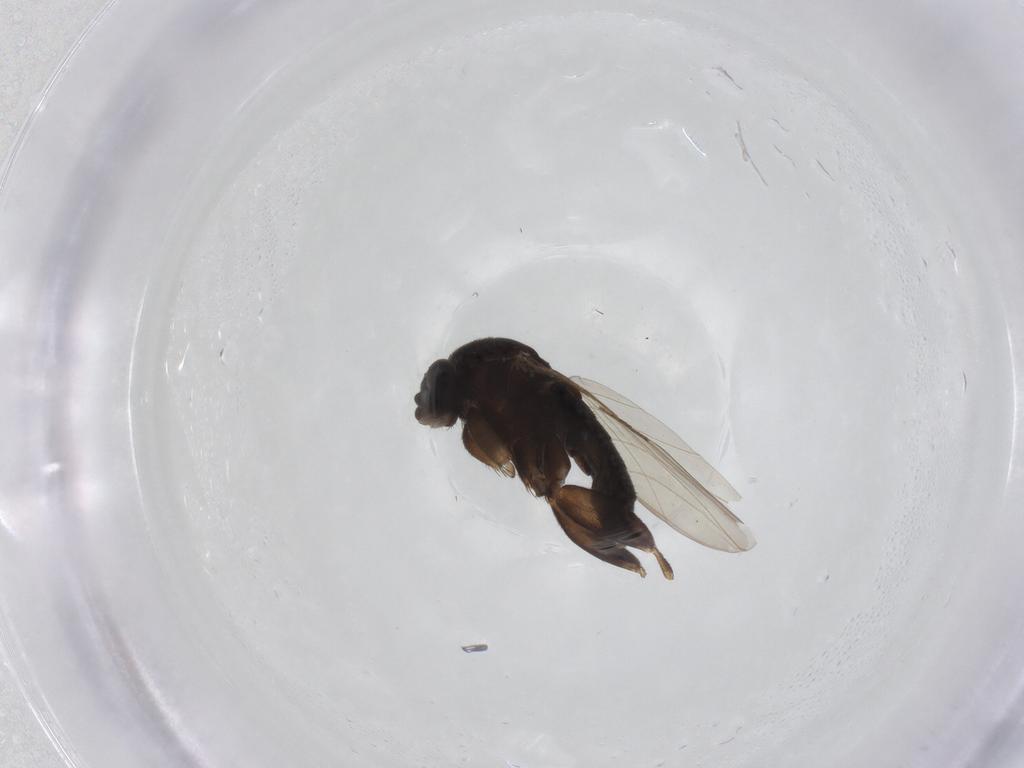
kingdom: Animalia
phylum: Arthropoda
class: Insecta
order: Diptera
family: Phoridae
